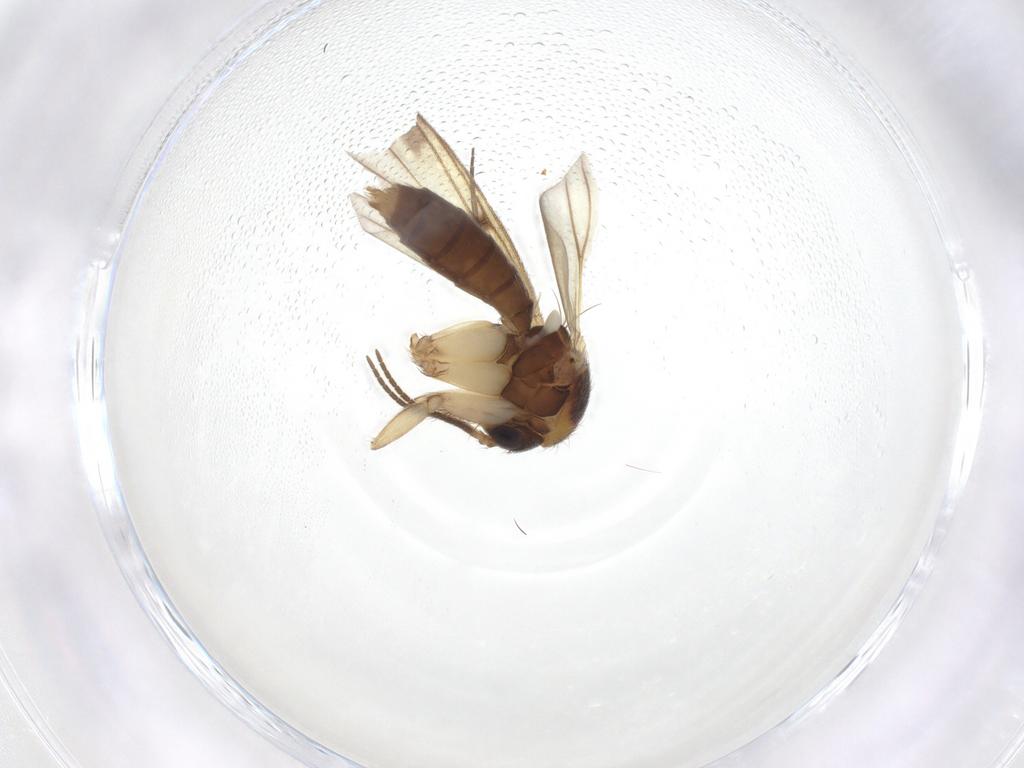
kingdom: Animalia
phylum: Arthropoda
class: Insecta
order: Diptera
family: Mycetophilidae
